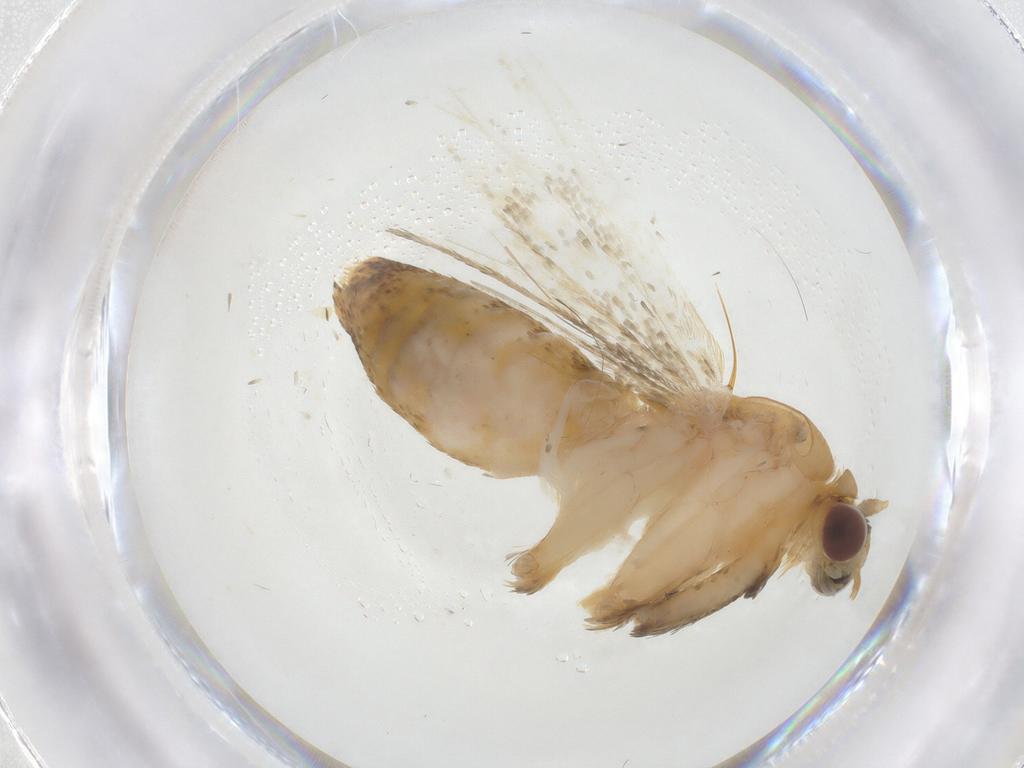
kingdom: Animalia
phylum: Arthropoda
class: Insecta
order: Lepidoptera
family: Erebidae
